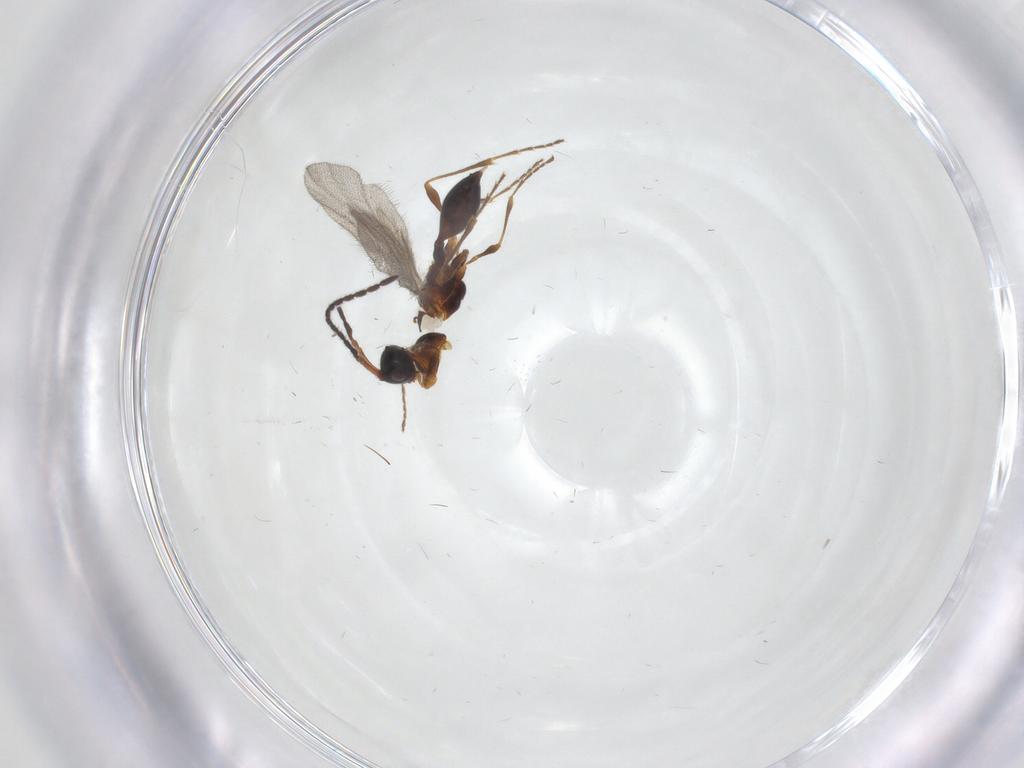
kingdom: Animalia
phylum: Arthropoda
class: Insecta
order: Hymenoptera
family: Diapriidae
